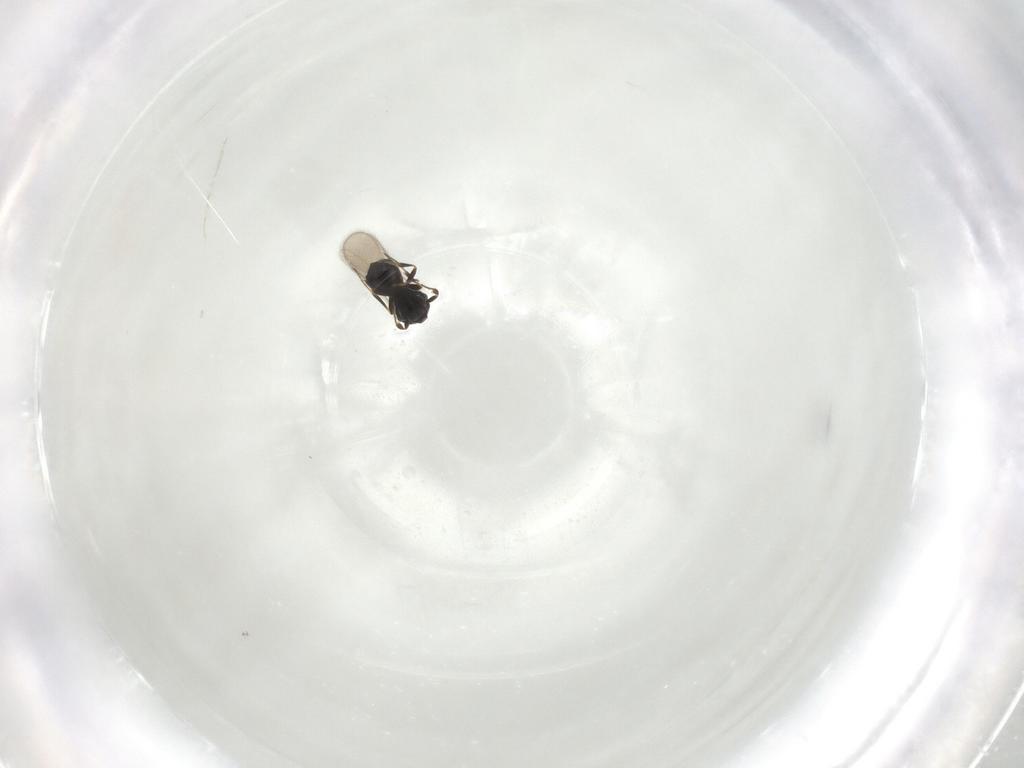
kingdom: Animalia
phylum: Arthropoda
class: Insecta
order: Hymenoptera
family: Scelionidae
